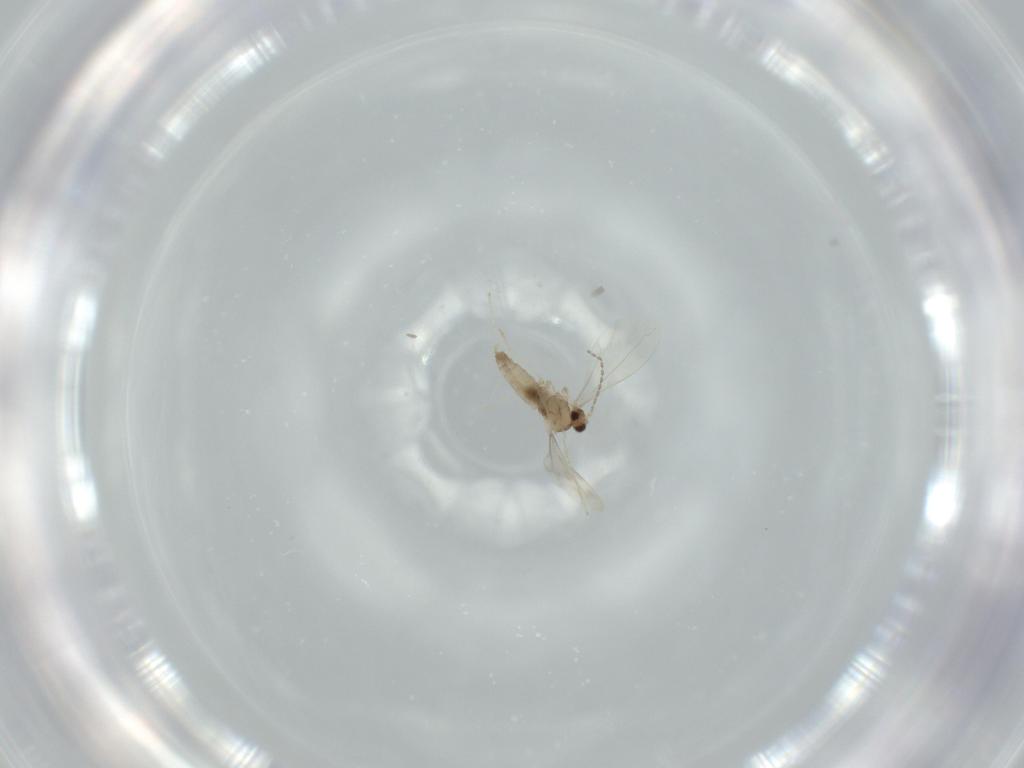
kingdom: Animalia
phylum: Arthropoda
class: Insecta
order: Diptera
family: Cecidomyiidae
